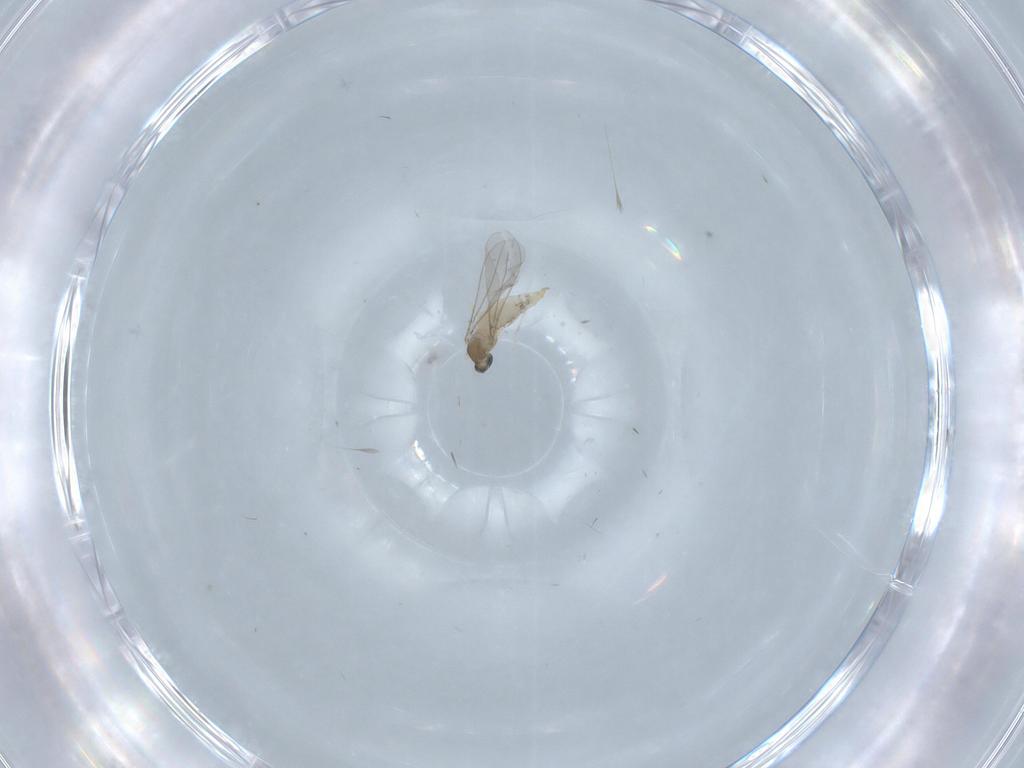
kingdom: Animalia
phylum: Arthropoda
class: Insecta
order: Diptera
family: Cecidomyiidae
